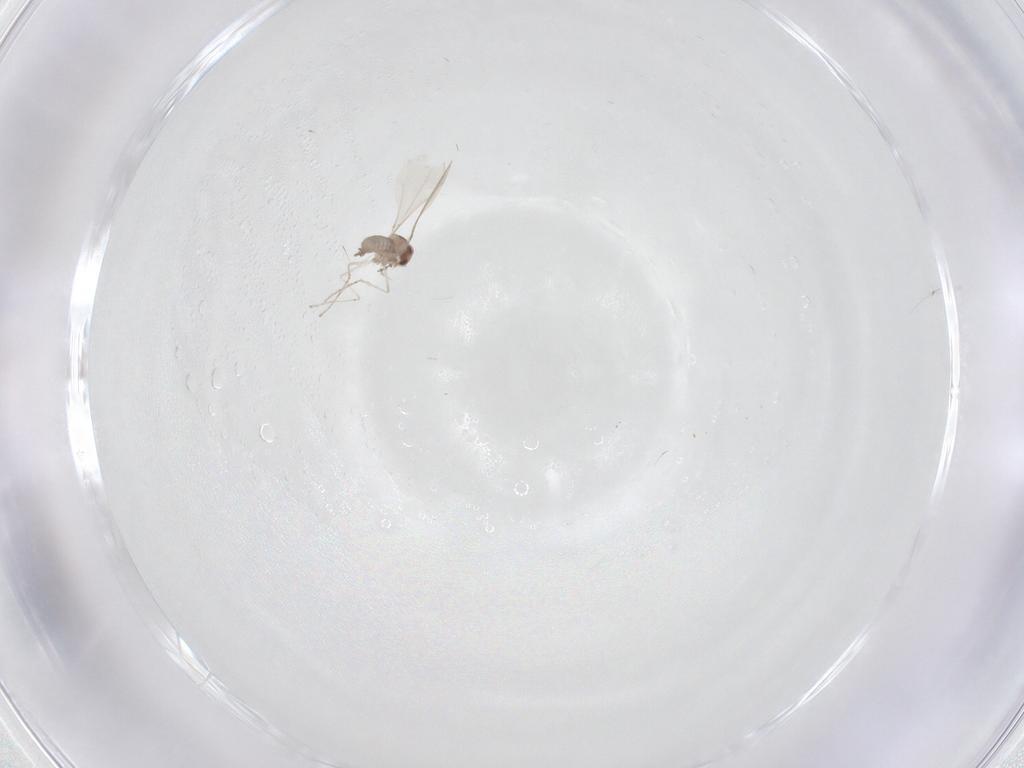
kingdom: Animalia
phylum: Arthropoda
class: Insecta
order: Diptera
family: Cecidomyiidae
